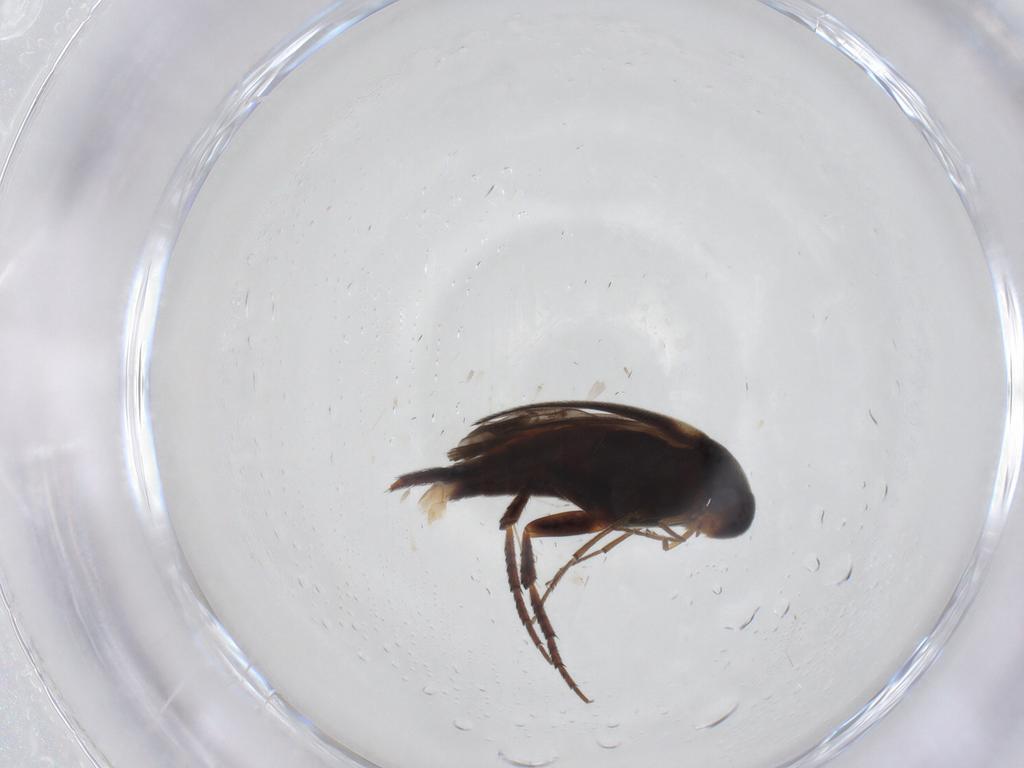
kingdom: Animalia
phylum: Arthropoda
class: Insecta
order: Coleoptera
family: Mordellidae
